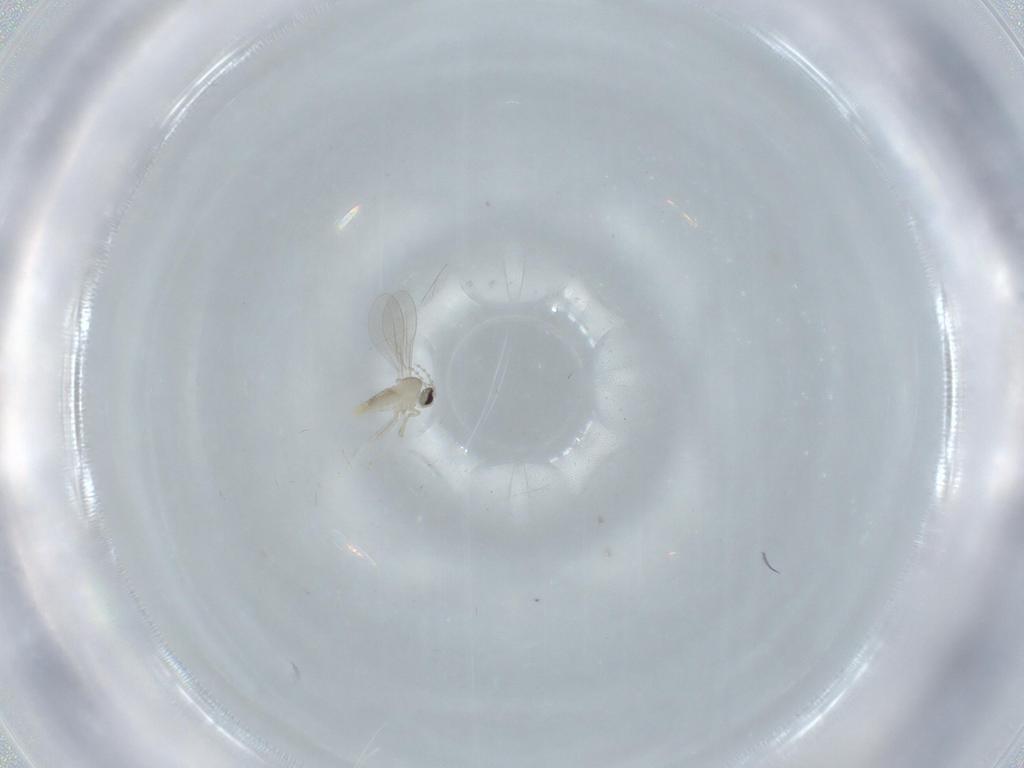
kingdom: Animalia
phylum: Arthropoda
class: Insecta
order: Diptera
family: Cecidomyiidae
